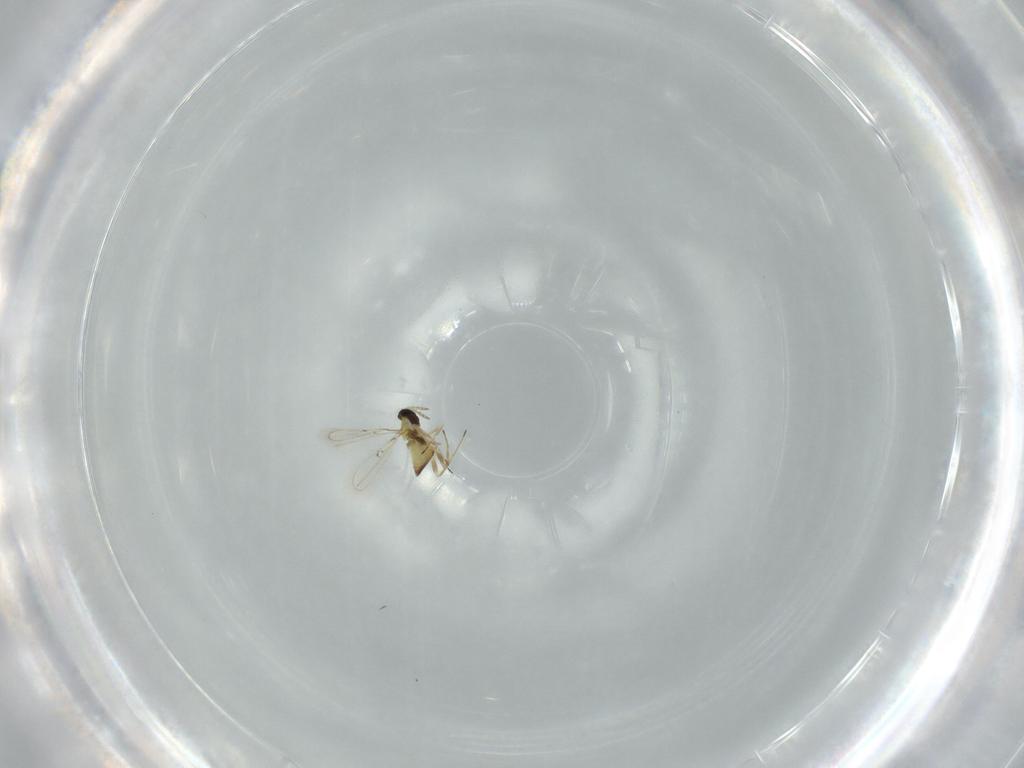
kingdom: Animalia
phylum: Arthropoda
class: Insecta
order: Hymenoptera
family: Trichogrammatidae
